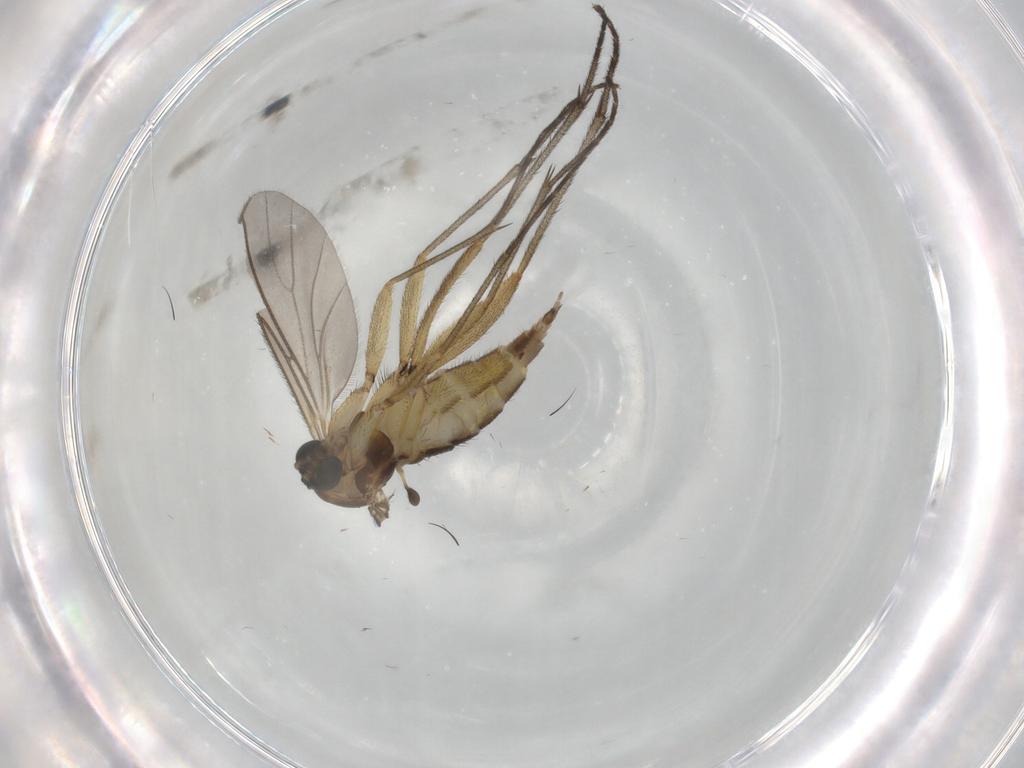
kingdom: Animalia
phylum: Arthropoda
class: Insecta
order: Diptera
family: Sciaridae
